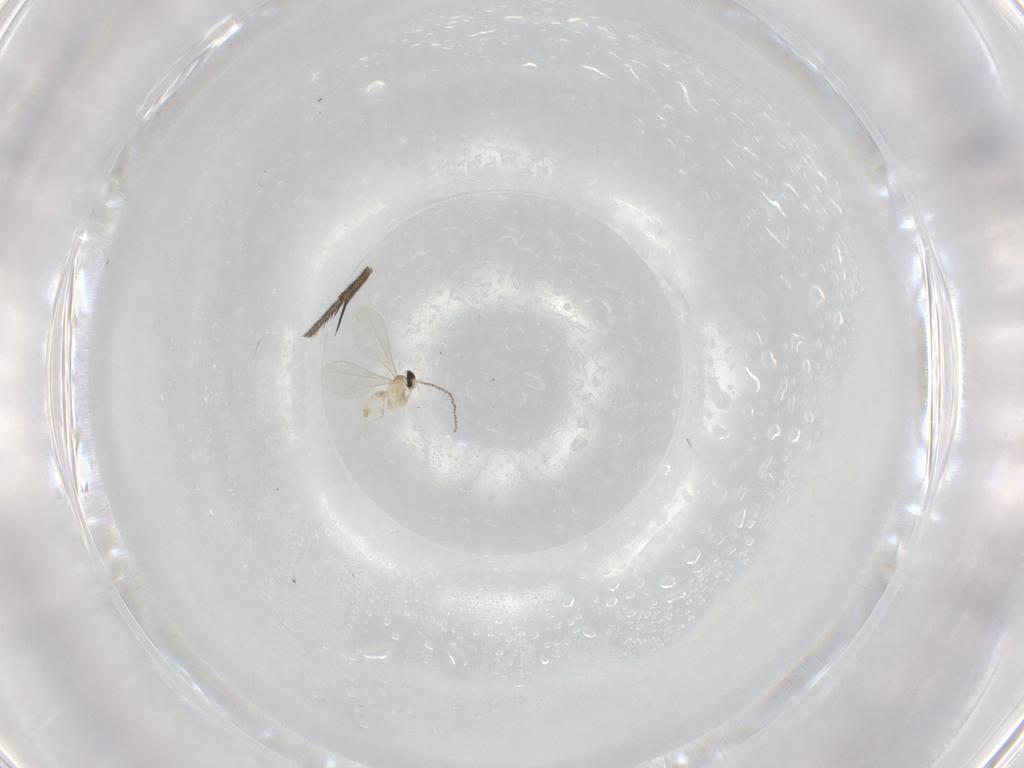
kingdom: Animalia
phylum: Arthropoda
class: Insecta
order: Diptera
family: Ditomyiidae
